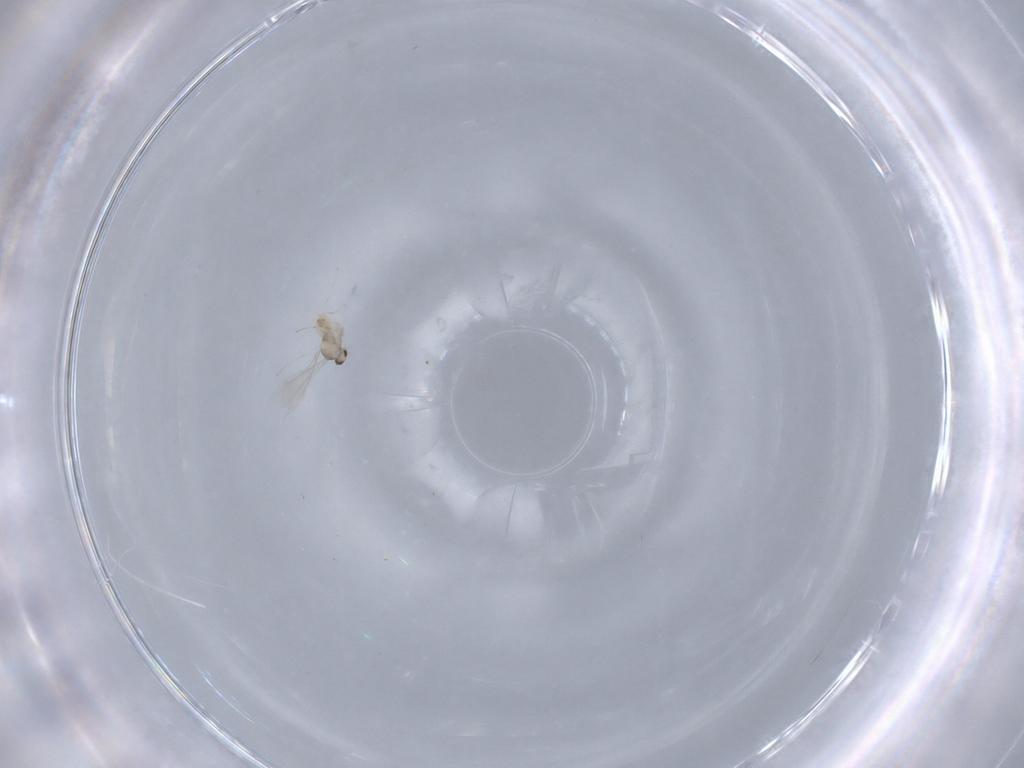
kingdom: Animalia
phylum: Arthropoda
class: Insecta
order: Diptera
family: Cecidomyiidae
